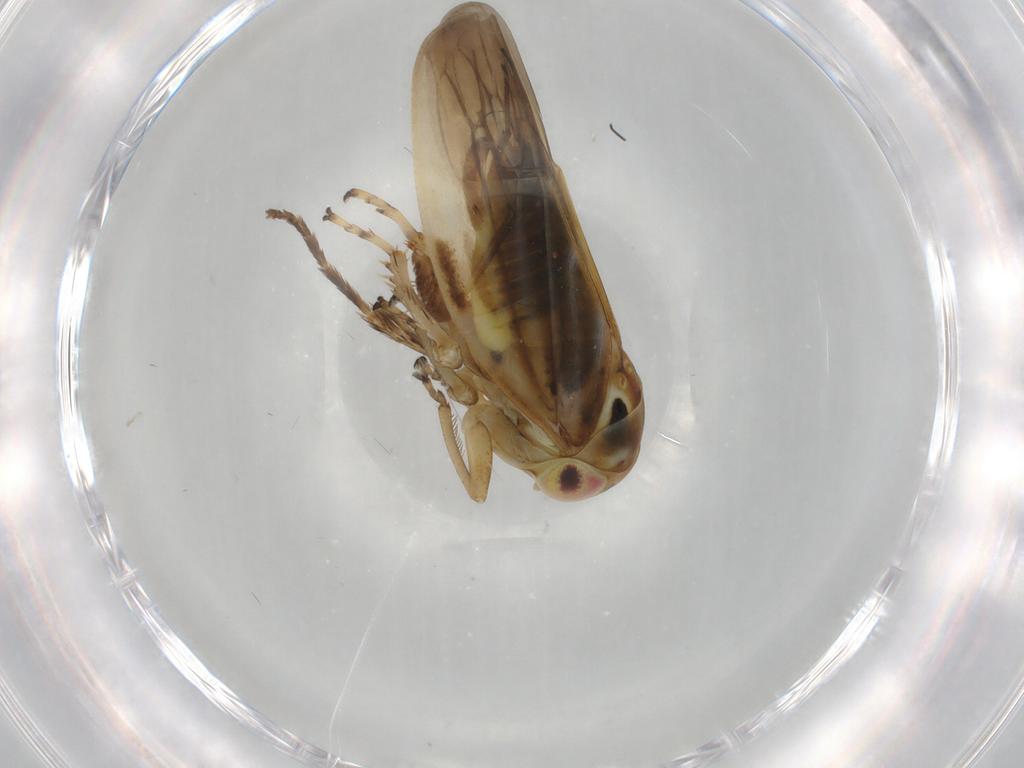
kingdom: Animalia
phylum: Arthropoda
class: Insecta
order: Hemiptera
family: Cicadellidae
